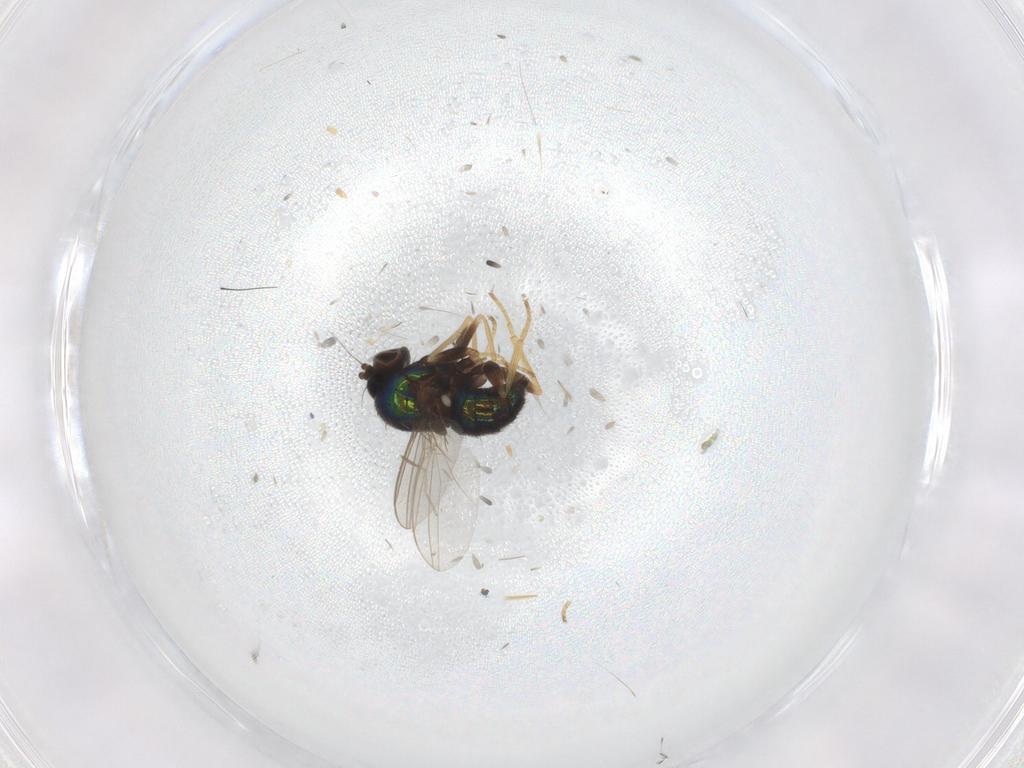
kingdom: Animalia
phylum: Arthropoda
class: Insecta
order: Diptera
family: Dolichopodidae
